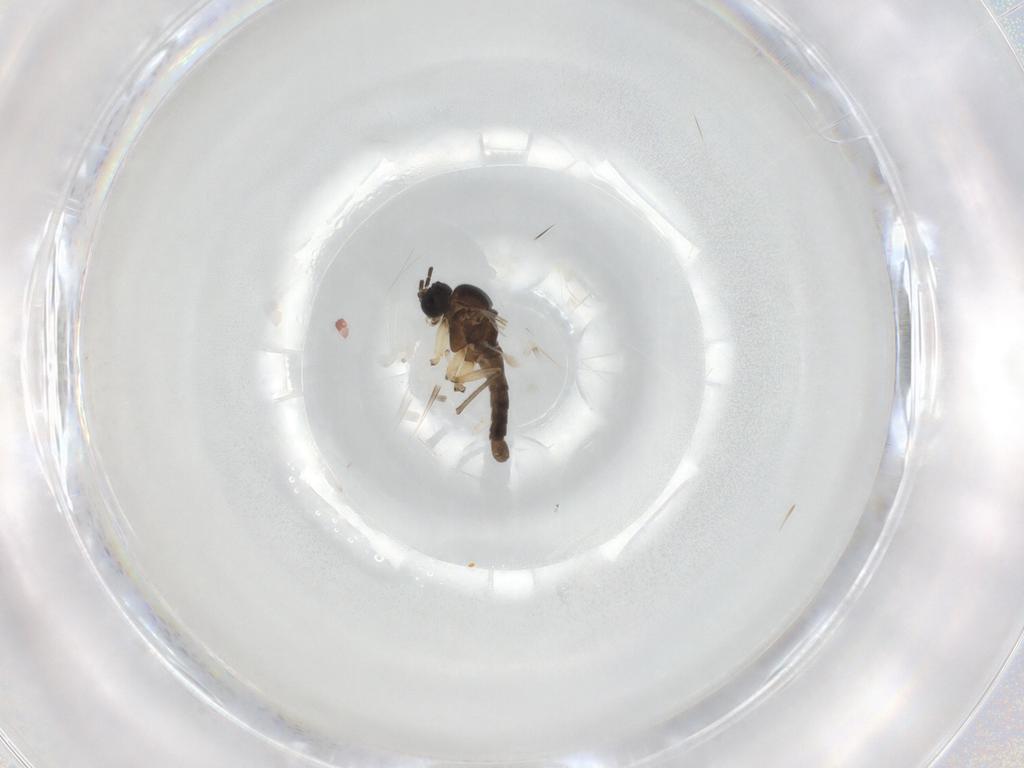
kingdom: Animalia
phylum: Arthropoda
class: Insecta
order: Diptera
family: Sciaridae
